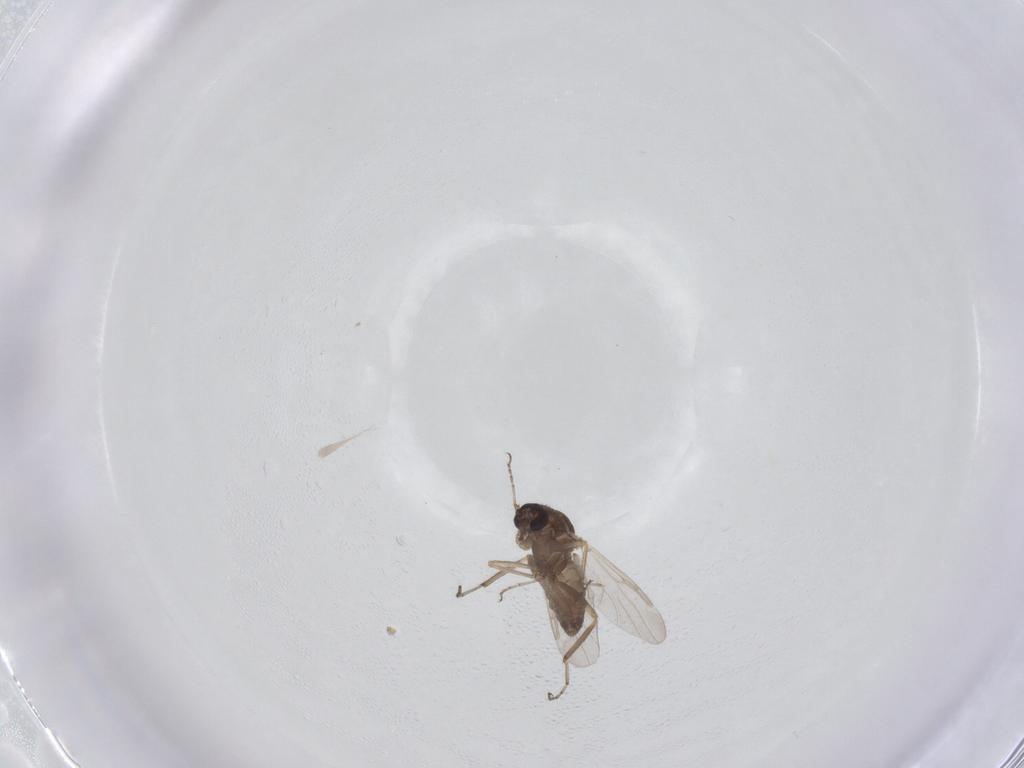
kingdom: Animalia
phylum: Arthropoda
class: Insecta
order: Diptera
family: Ceratopogonidae
